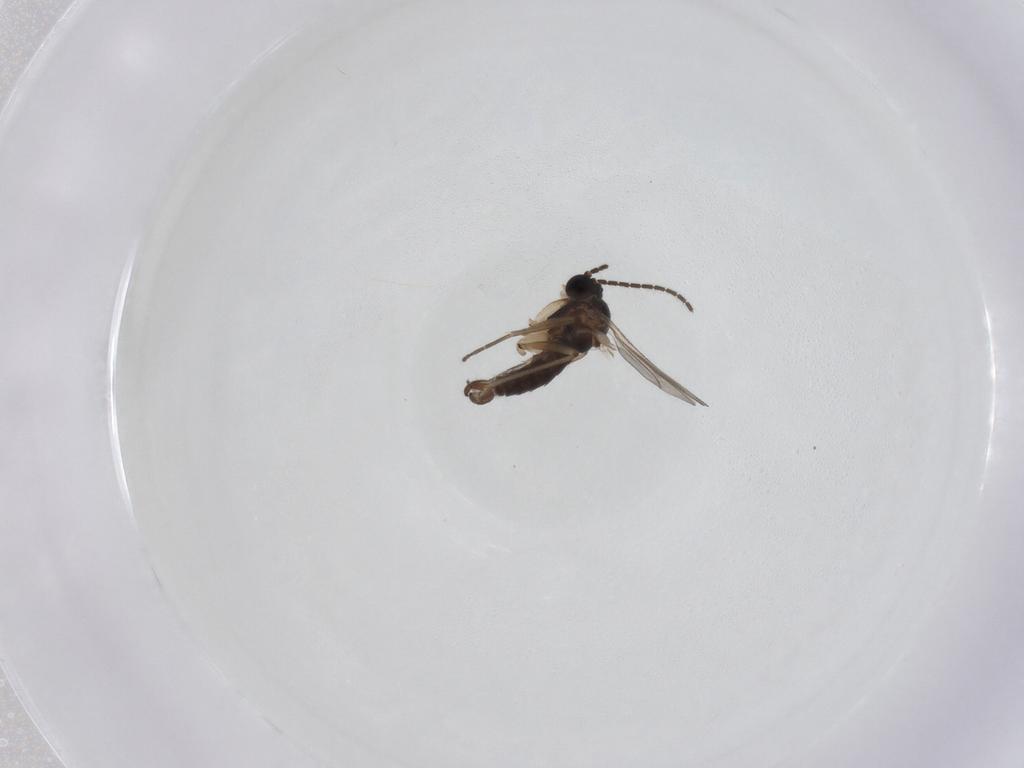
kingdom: Animalia
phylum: Arthropoda
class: Insecta
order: Diptera
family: Sciaridae
